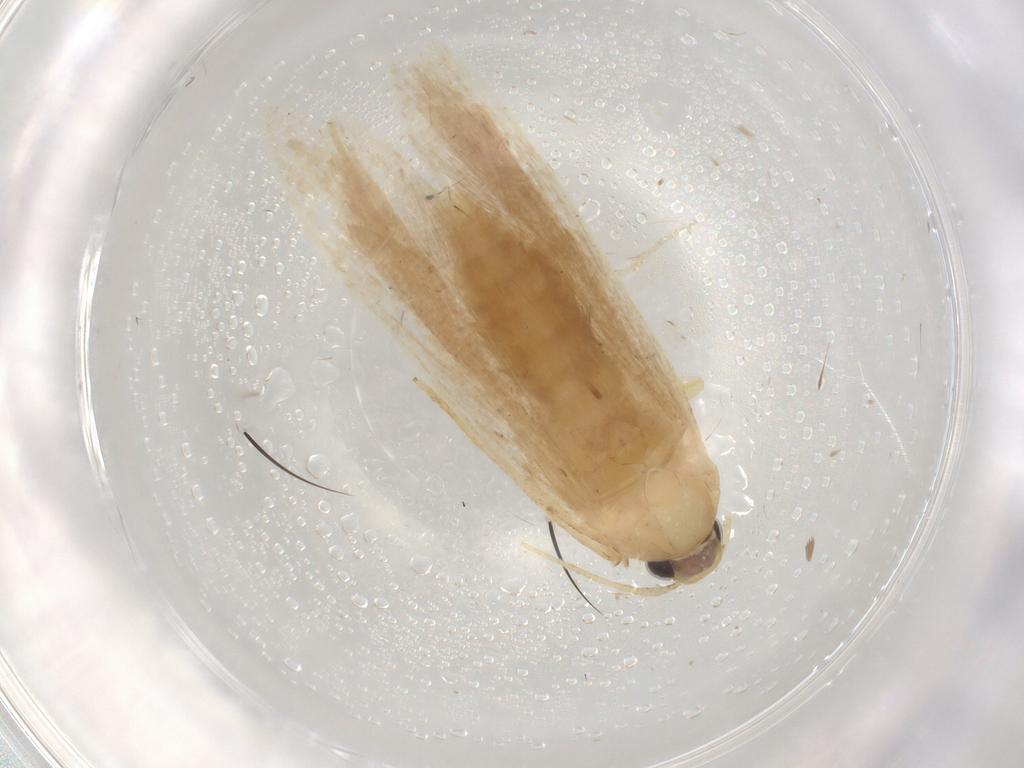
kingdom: Animalia
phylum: Arthropoda
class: Insecta
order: Lepidoptera
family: Gelechiidae
